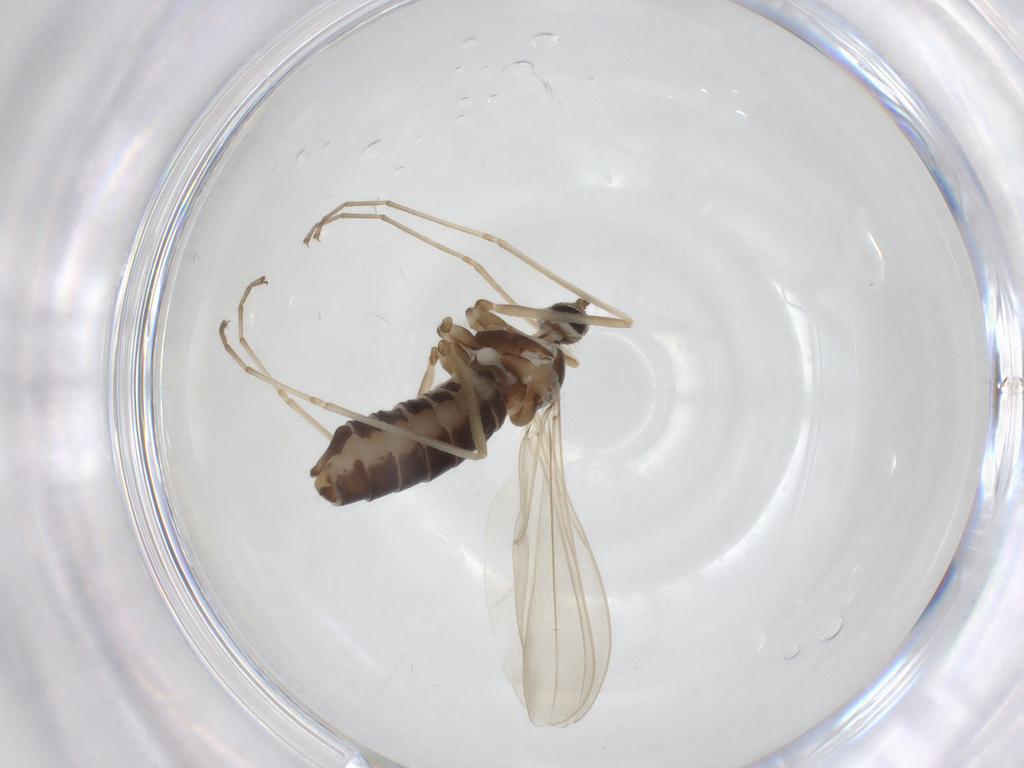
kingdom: Animalia
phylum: Arthropoda
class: Insecta
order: Diptera
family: Cecidomyiidae
